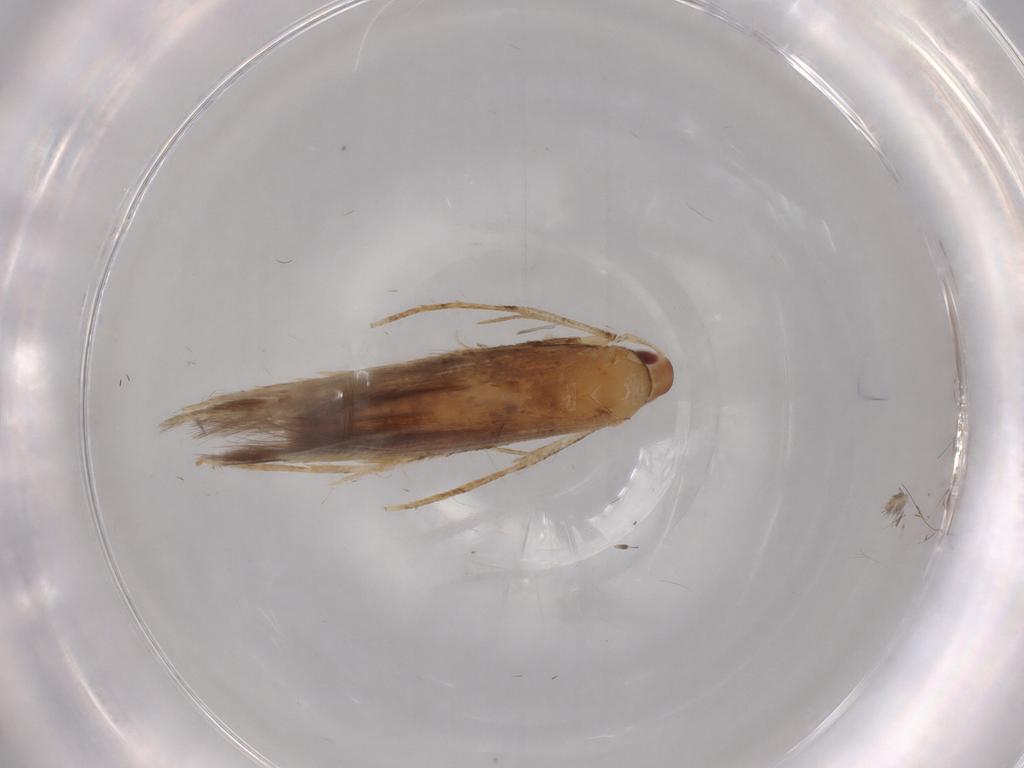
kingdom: Animalia
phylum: Arthropoda
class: Insecta
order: Lepidoptera
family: Cosmopterigidae
